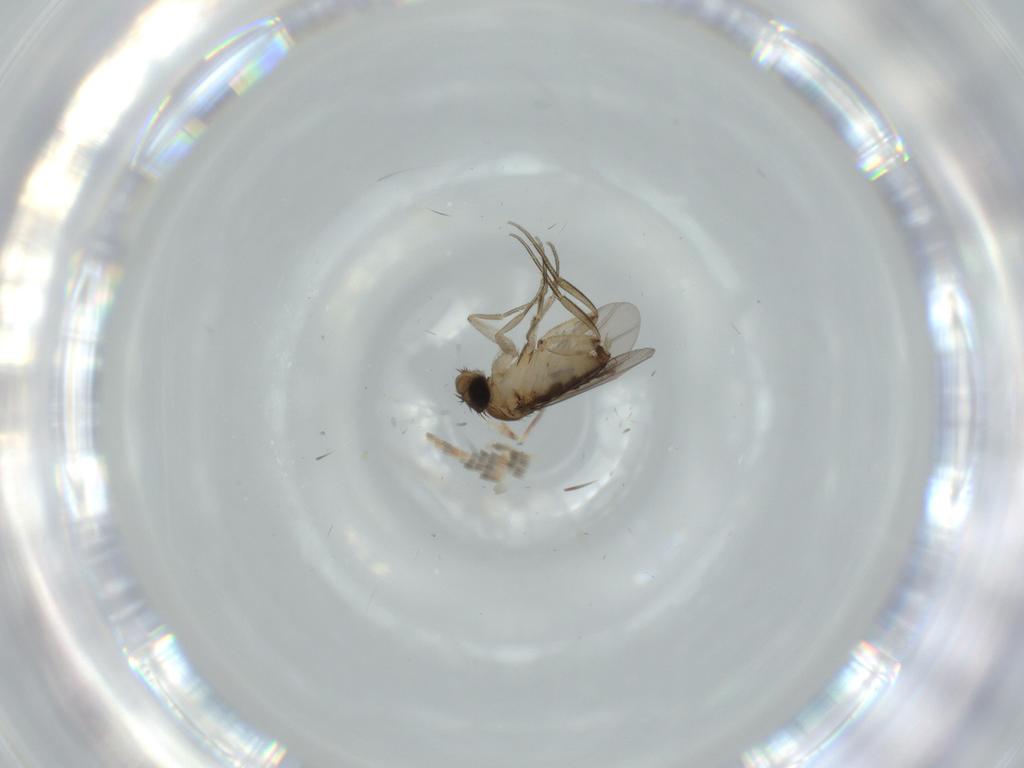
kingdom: Animalia
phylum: Arthropoda
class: Insecta
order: Diptera
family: Phoridae
